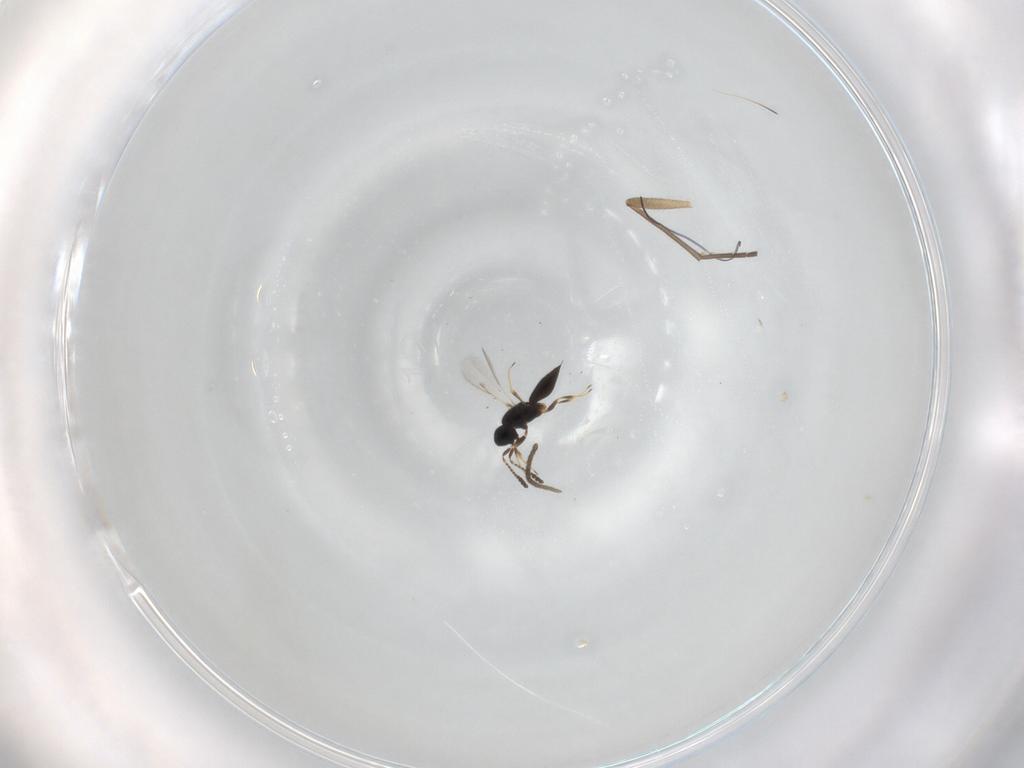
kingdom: Animalia
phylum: Arthropoda
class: Insecta
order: Hymenoptera
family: Scelionidae
